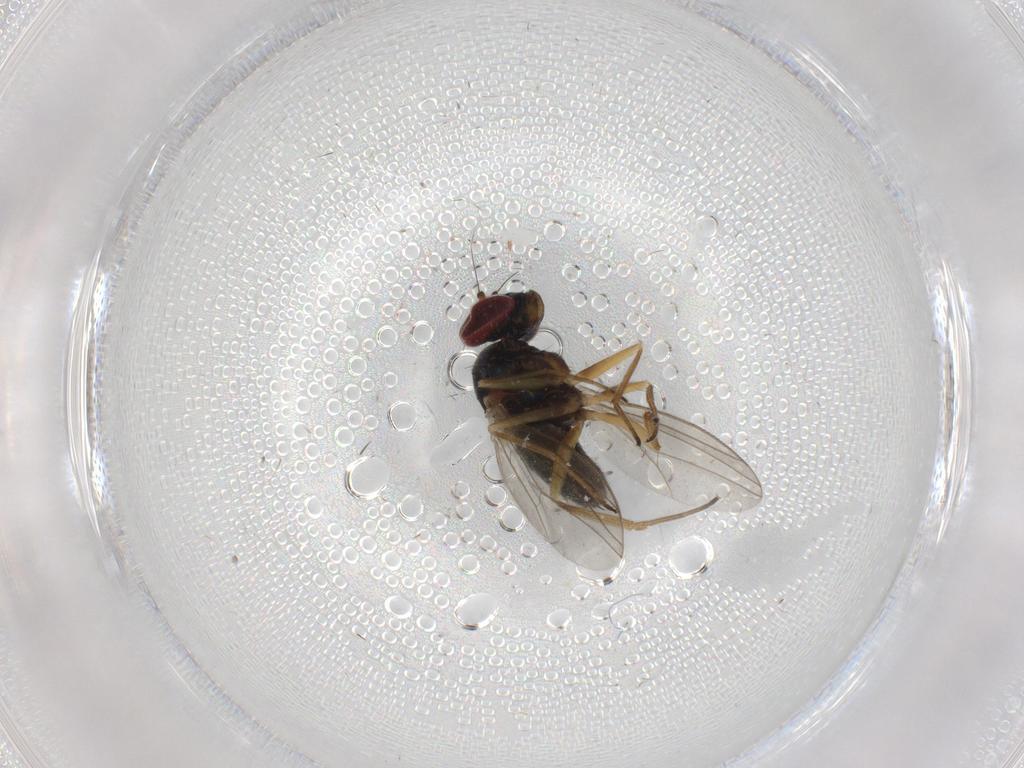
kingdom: Animalia
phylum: Arthropoda
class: Insecta
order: Diptera
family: Dolichopodidae
